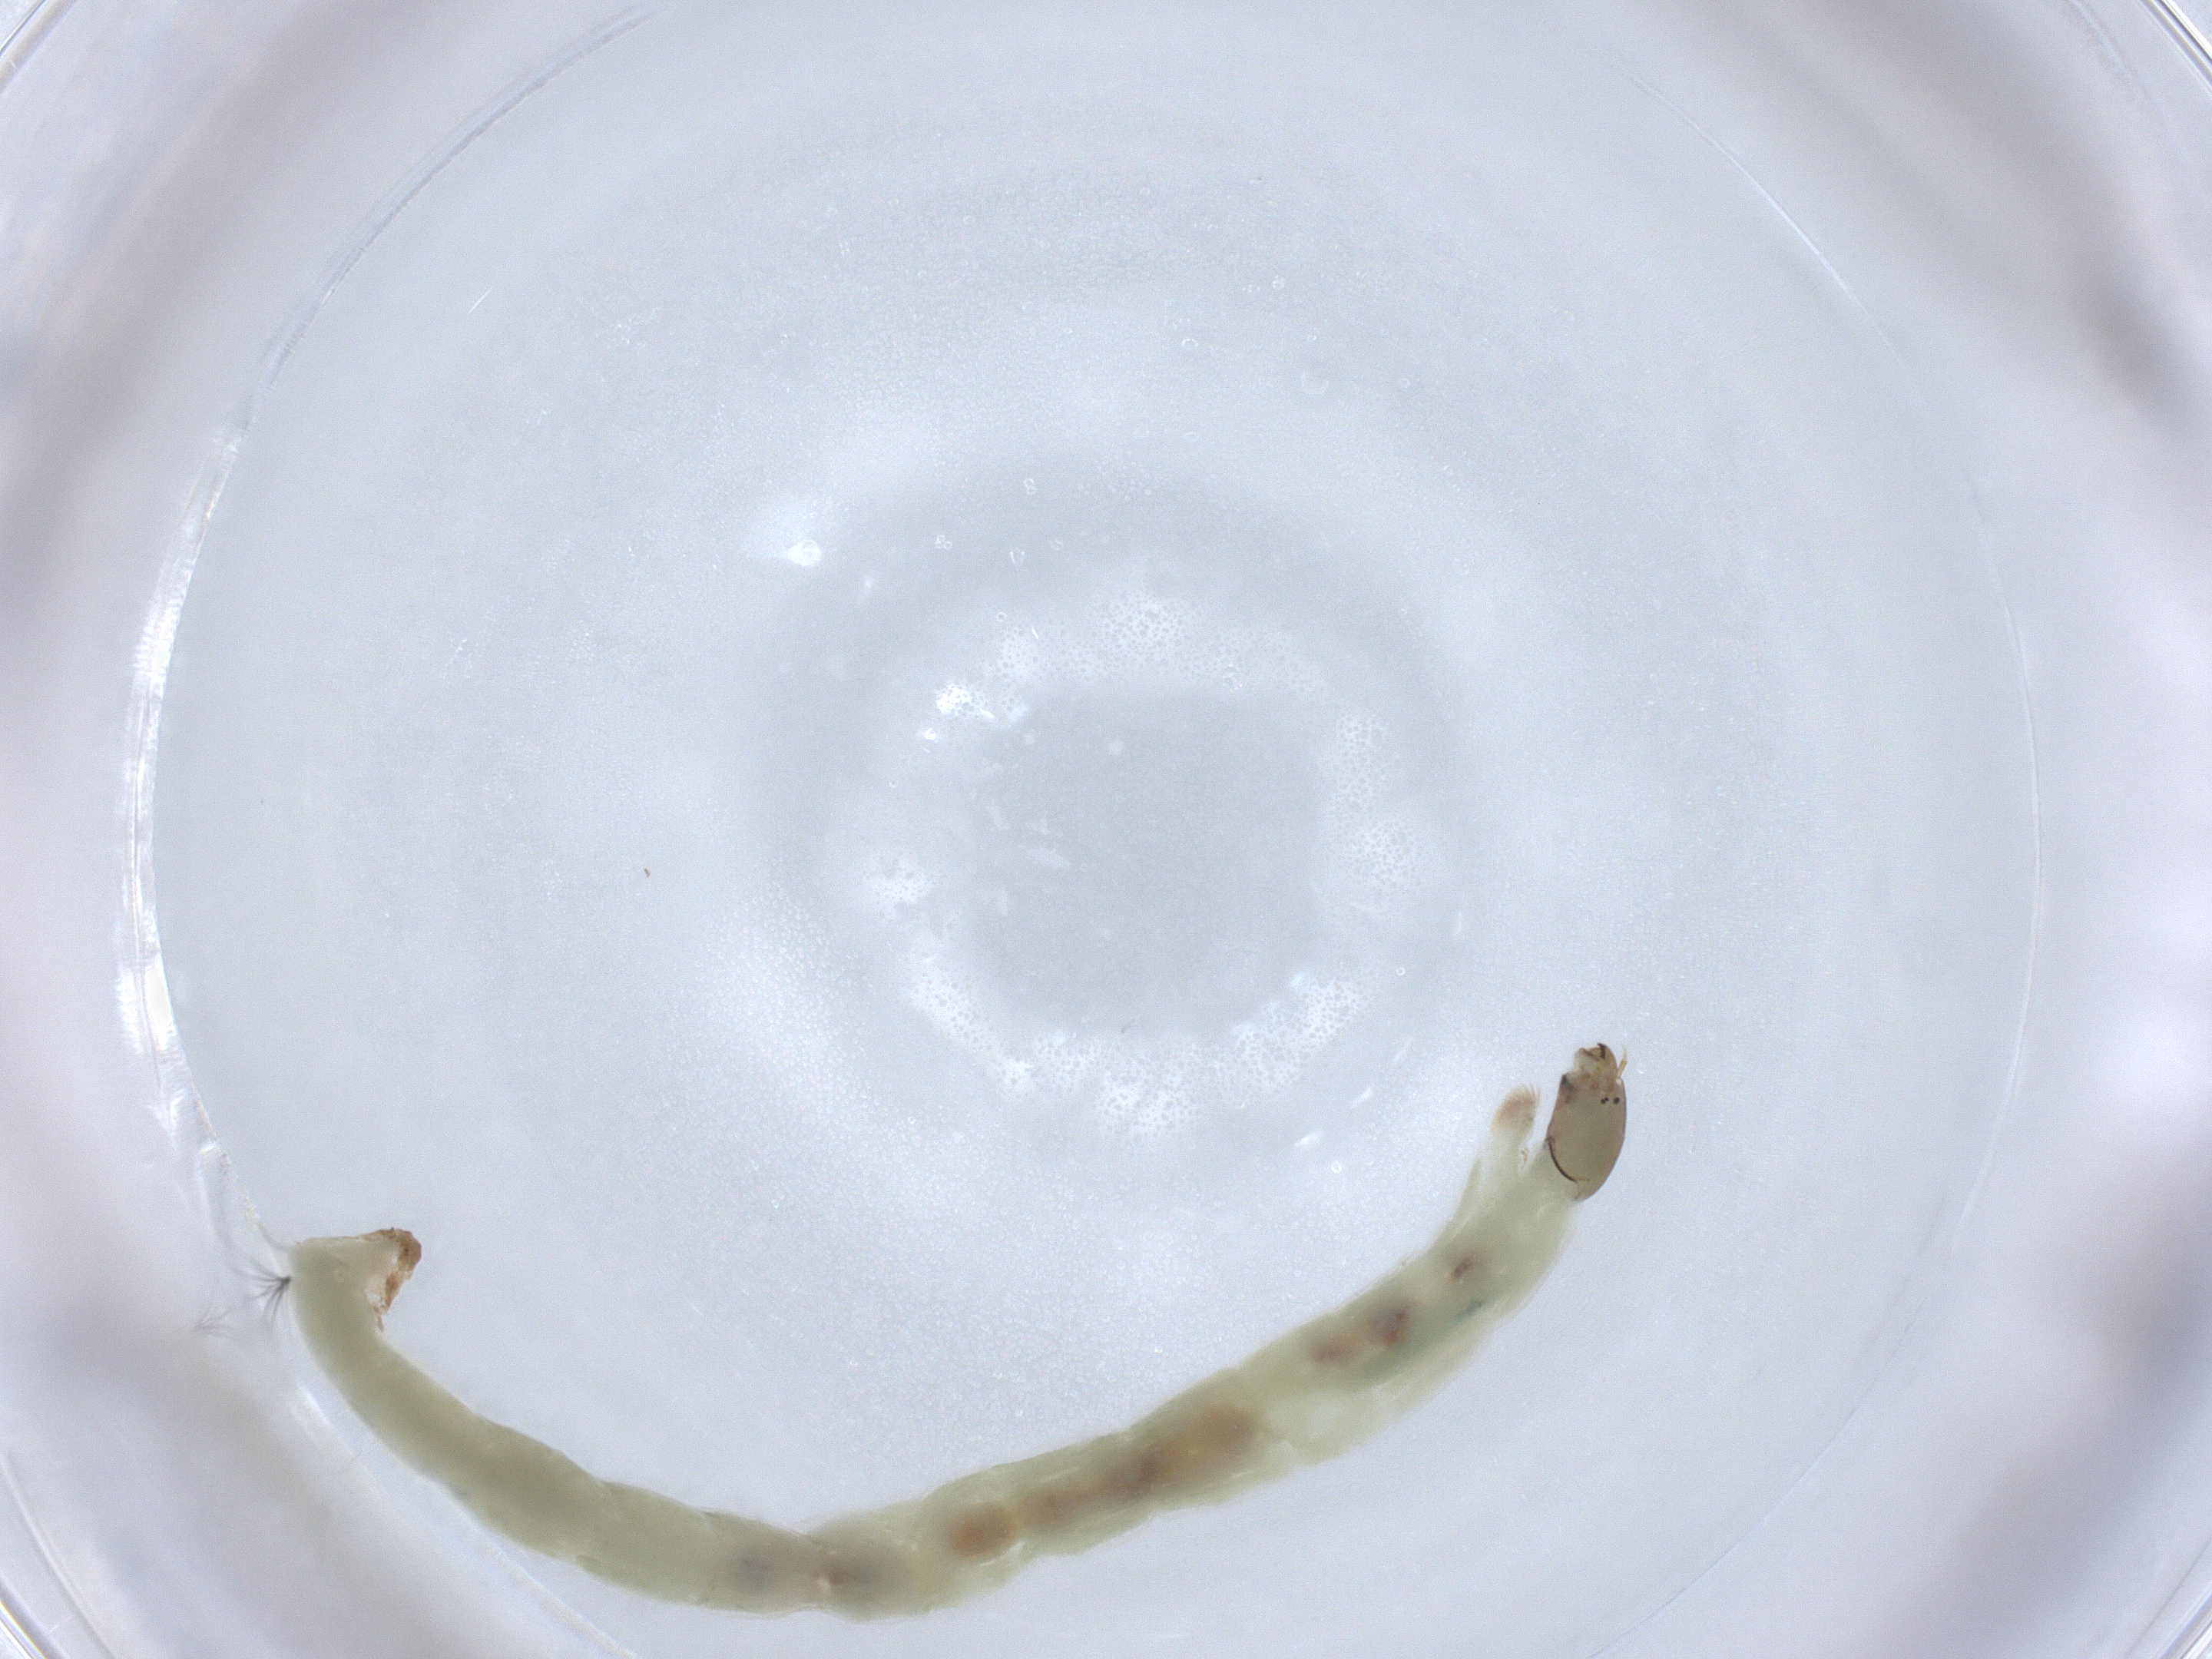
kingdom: Animalia
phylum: Arthropoda
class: Insecta
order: Diptera
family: Chironomidae
